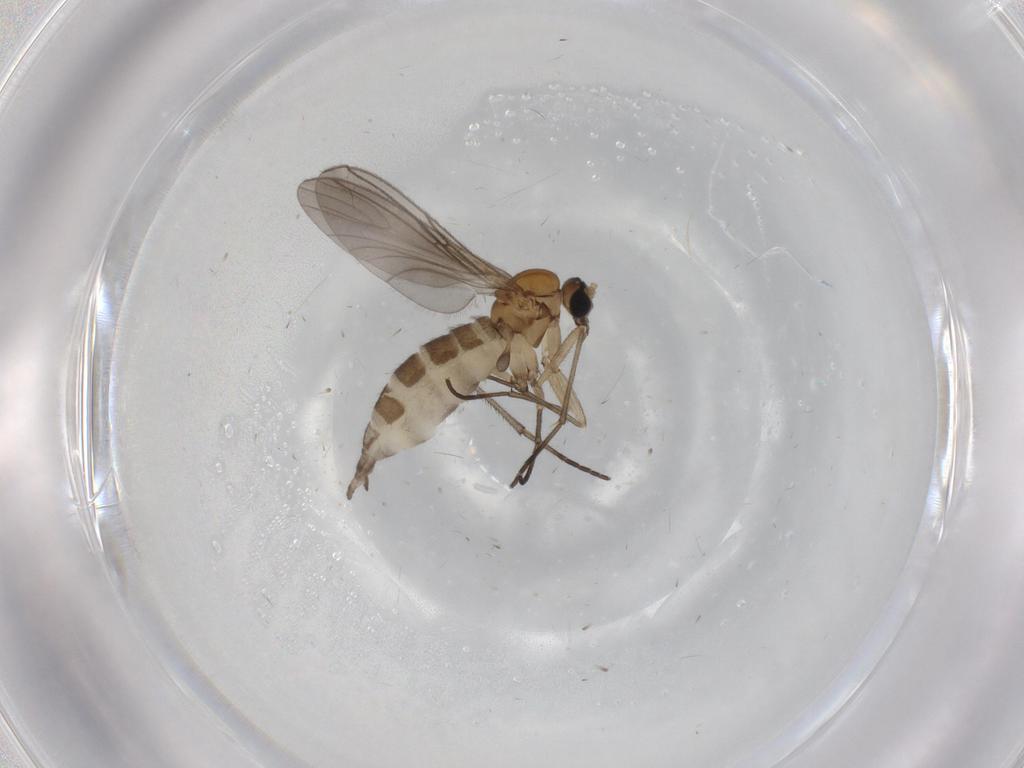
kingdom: Animalia
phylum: Arthropoda
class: Insecta
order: Diptera
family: Sciaridae
